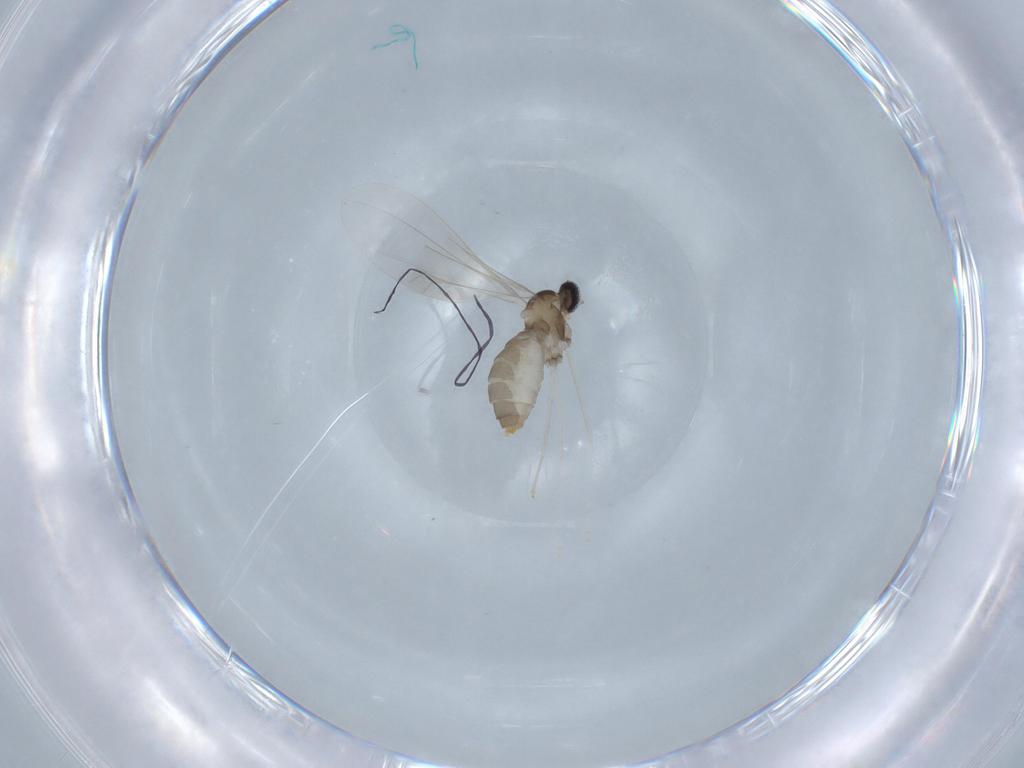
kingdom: Animalia
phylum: Arthropoda
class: Insecta
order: Diptera
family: Cecidomyiidae
